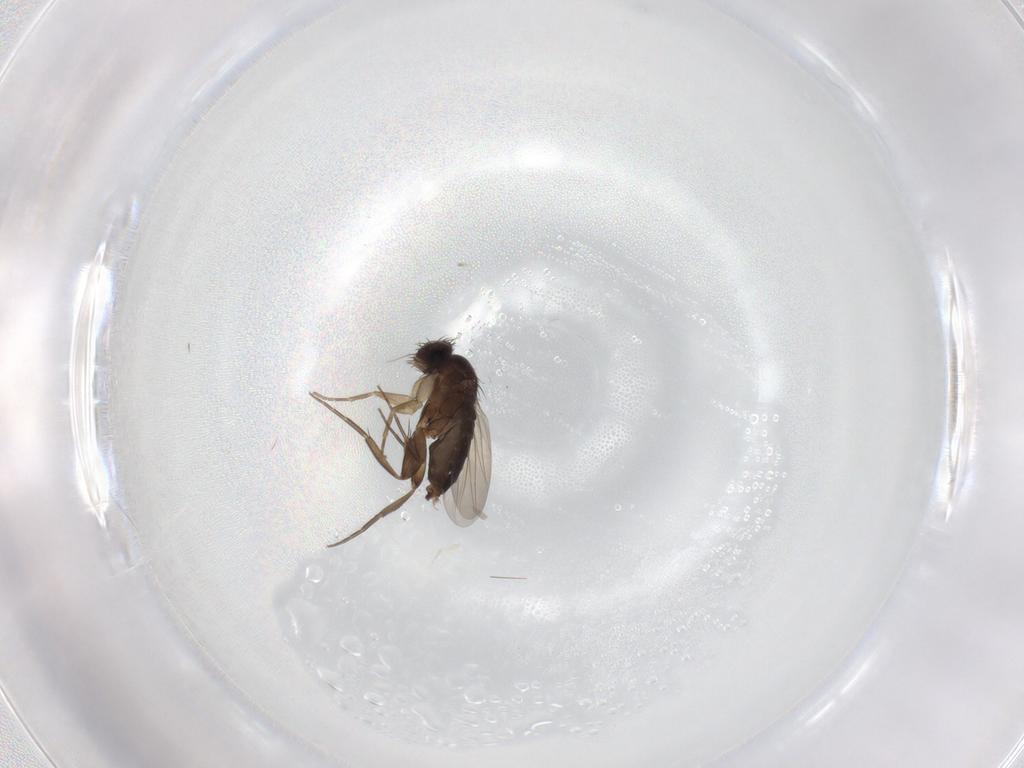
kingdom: Animalia
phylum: Arthropoda
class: Insecta
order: Diptera
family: Phoridae
